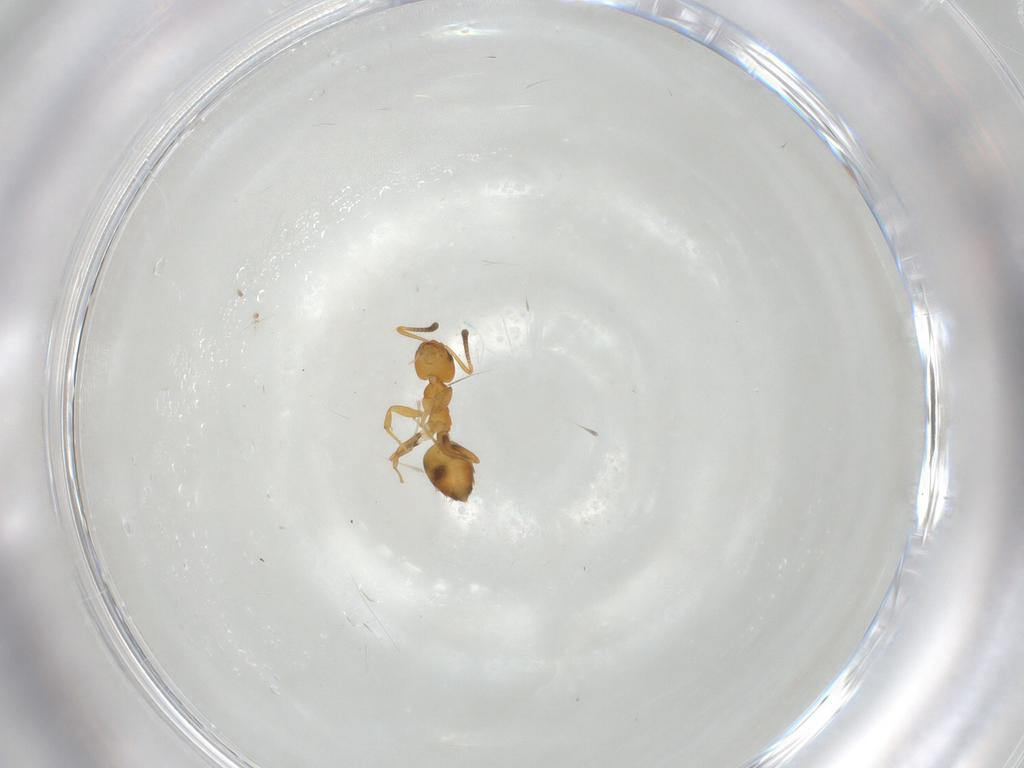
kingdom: Animalia
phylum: Arthropoda
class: Insecta
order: Hymenoptera
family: Formicidae
